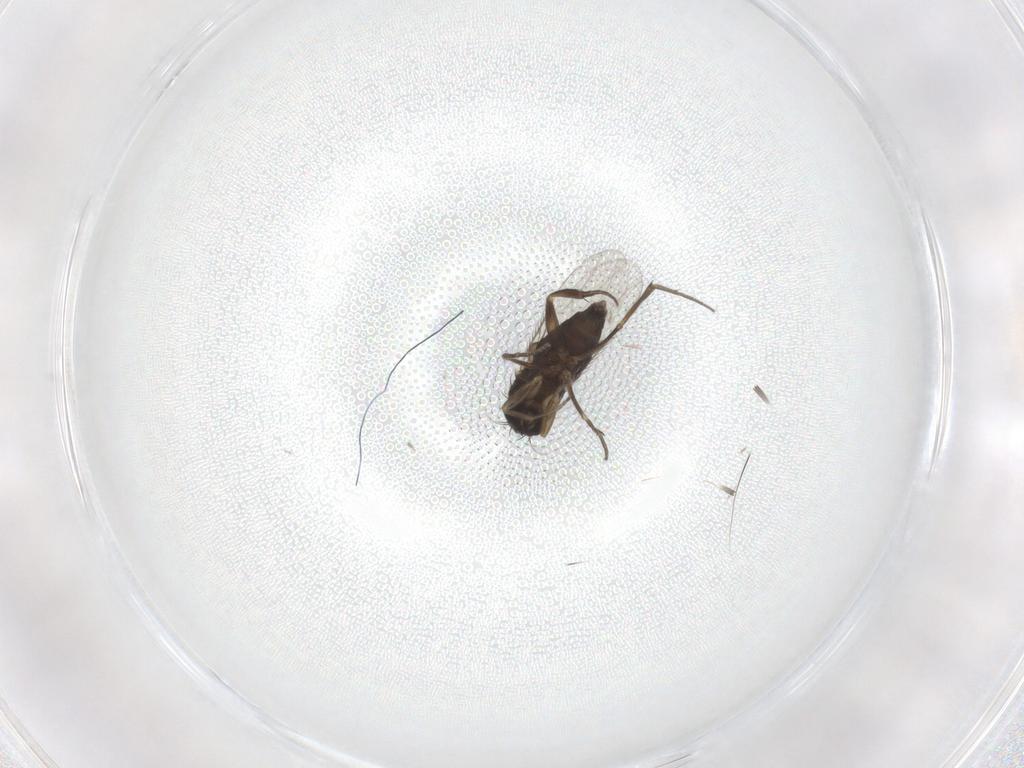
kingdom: Animalia
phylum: Arthropoda
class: Insecta
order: Diptera
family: Phoridae
